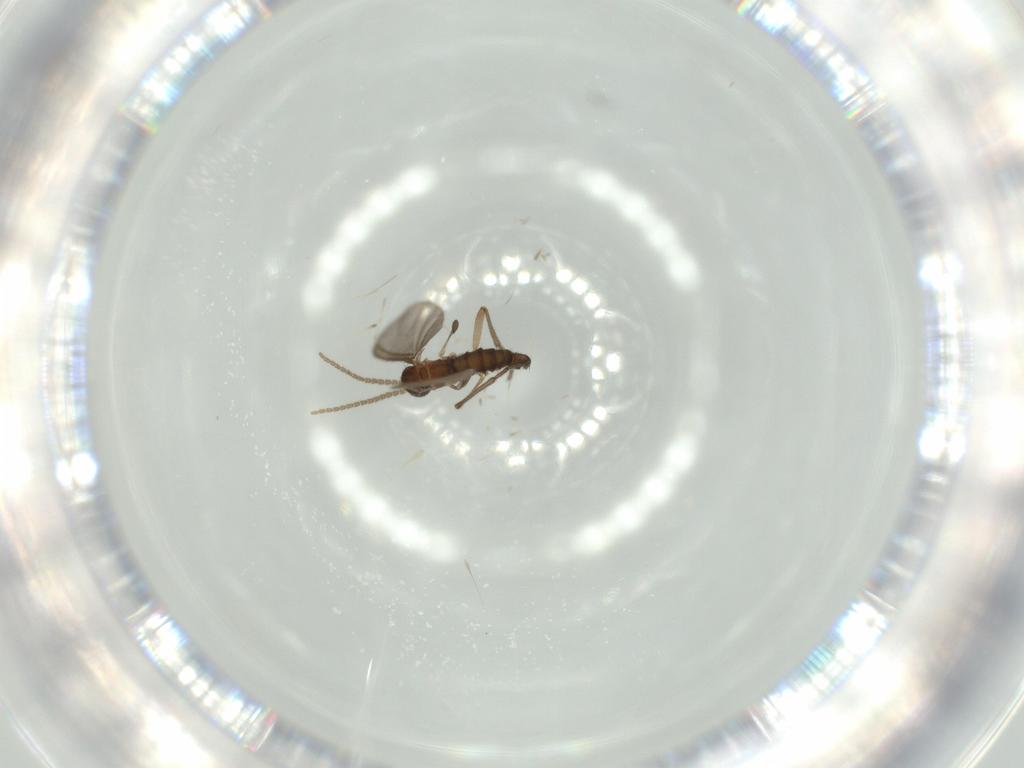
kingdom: Animalia
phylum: Arthropoda
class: Insecta
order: Diptera
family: Sciaridae
